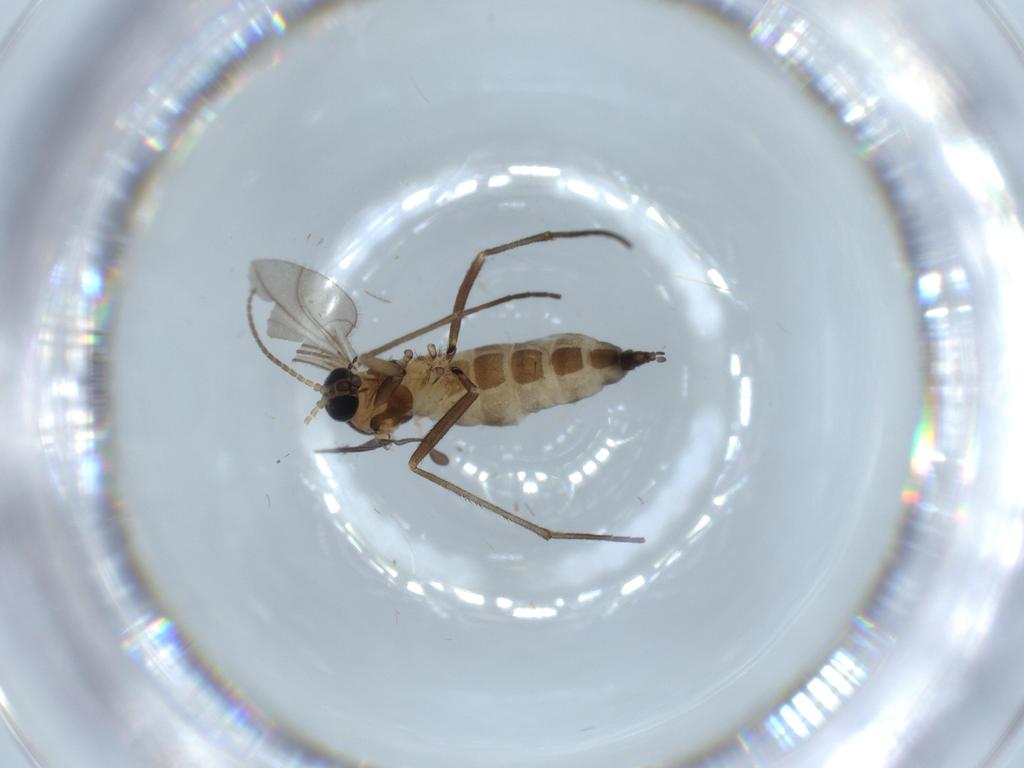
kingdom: Animalia
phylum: Arthropoda
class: Insecta
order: Diptera
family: Sciaridae
